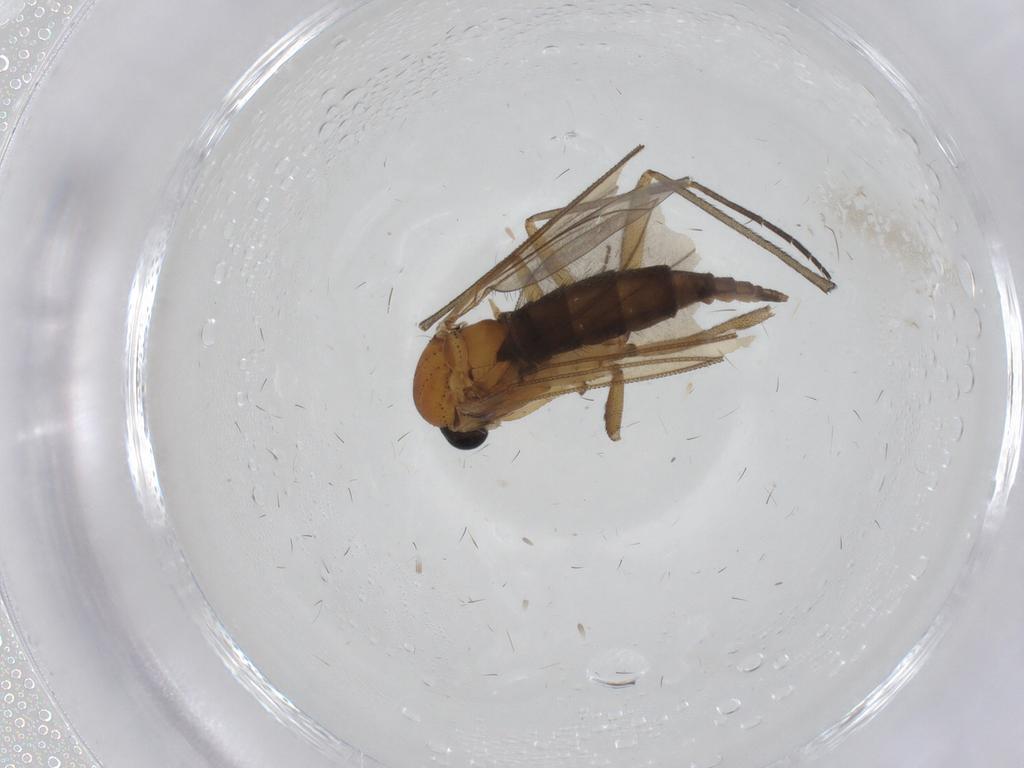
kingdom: Animalia
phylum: Arthropoda
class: Insecta
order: Diptera
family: Sciaridae
